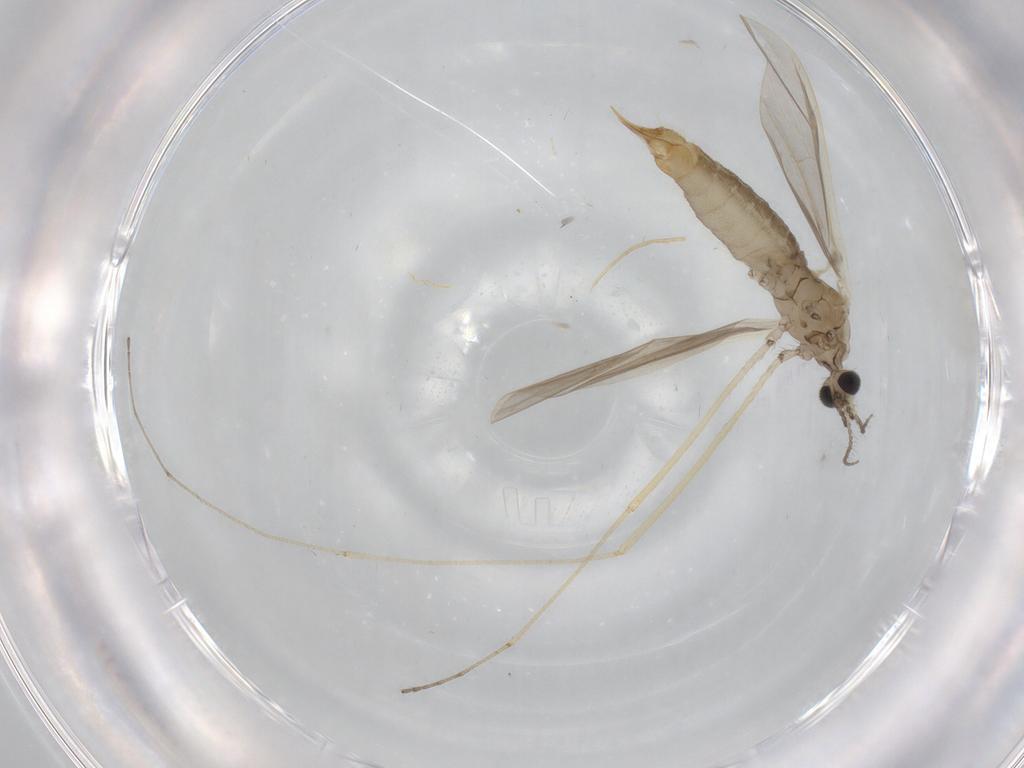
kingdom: Animalia
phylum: Arthropoda
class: Insecta
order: Diptera
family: Limoniidae
